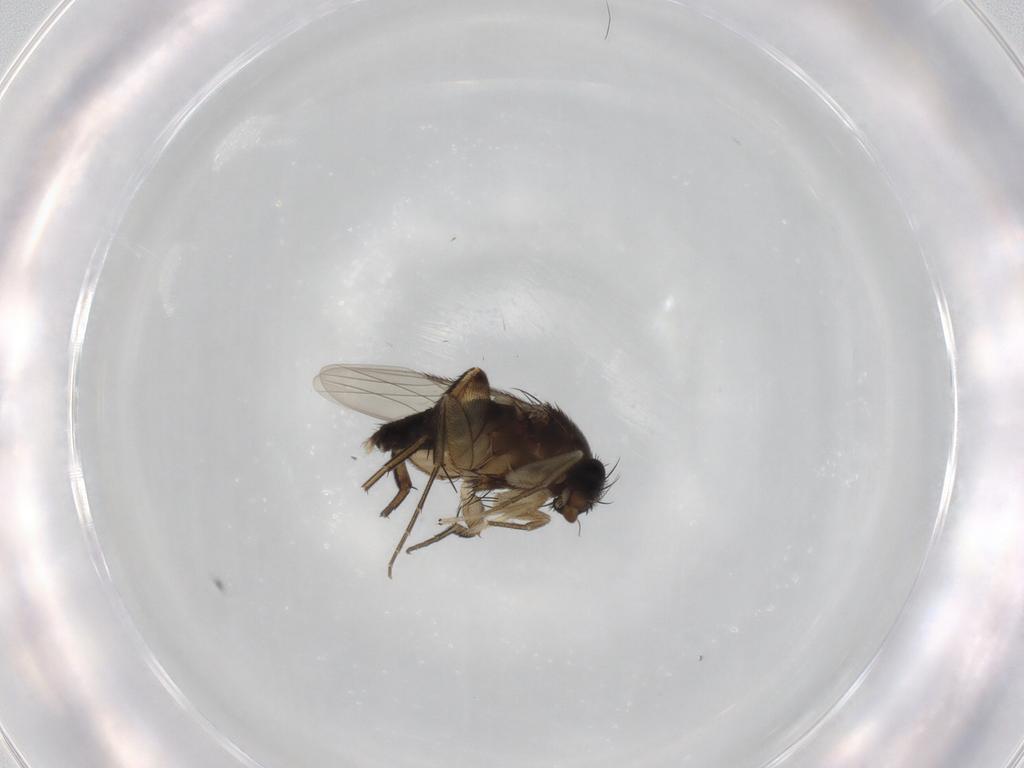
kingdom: Animalia
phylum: Arthropoda
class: Insecta
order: Diptera
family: Phoridae
